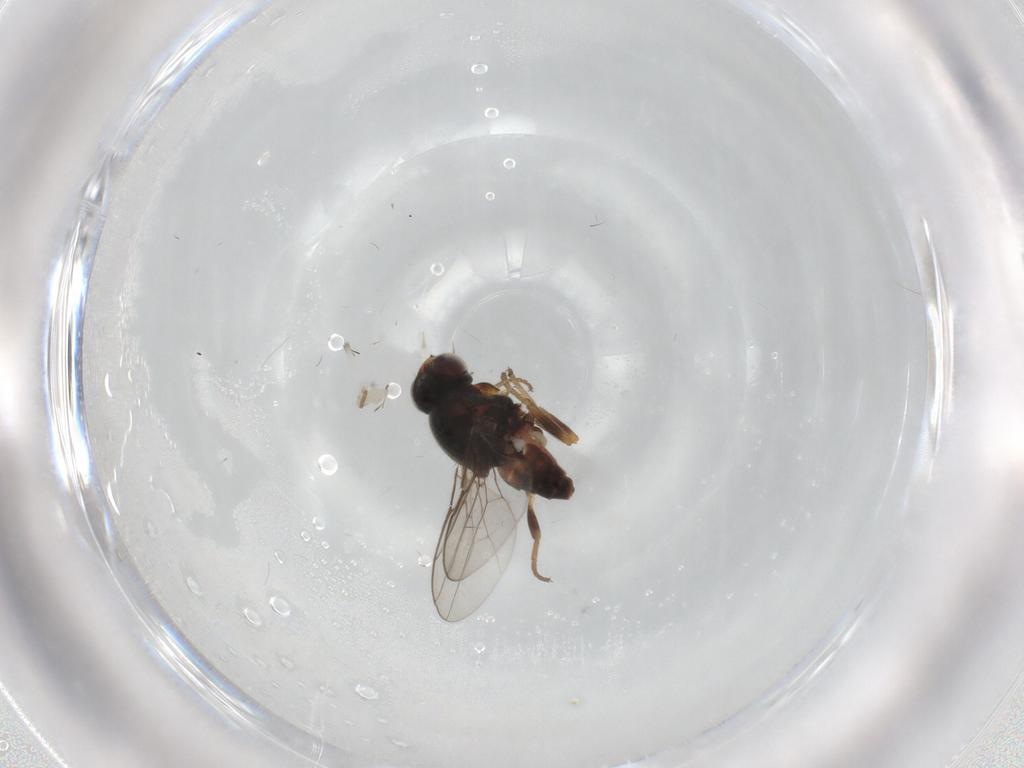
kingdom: Animalia
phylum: Arthropoda
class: Insecta
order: Diptera
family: Chloropidae
